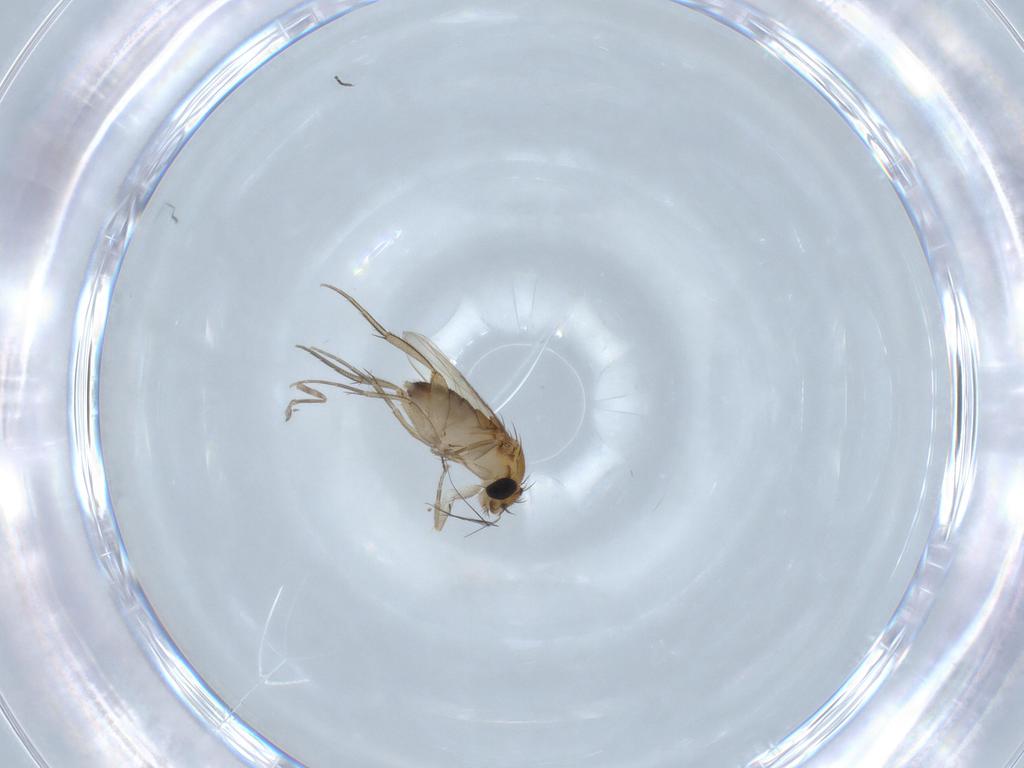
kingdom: Animalia
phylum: Arthropoda
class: Insecta
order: Diptera
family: Phoridae
